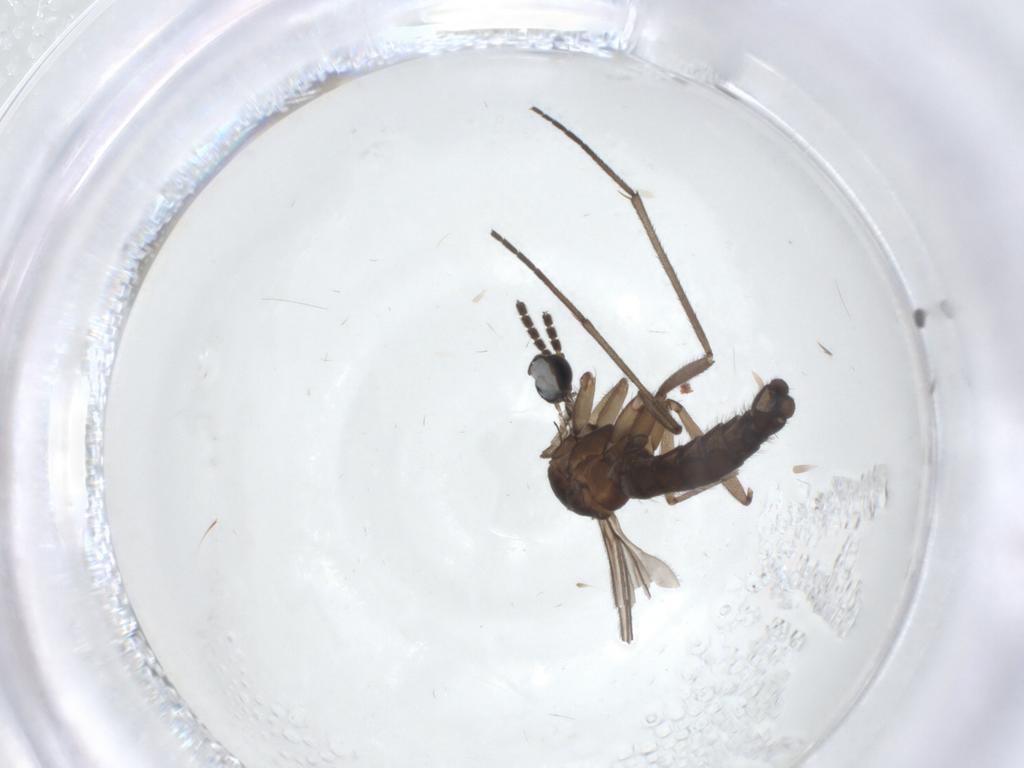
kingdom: Animalia
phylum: Arthropoda
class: Insecta
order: Diptera
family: Sciaridae
